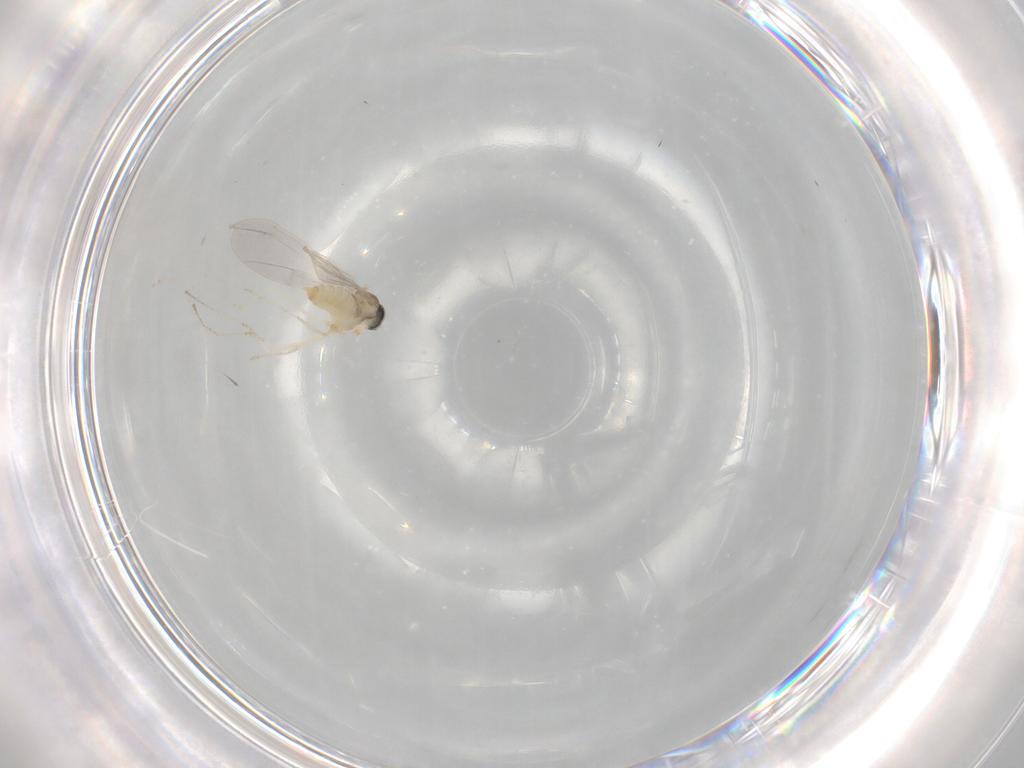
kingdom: Animalia
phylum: Arthropoda
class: Insecta
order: Diptera
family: Cecidomyiidae
